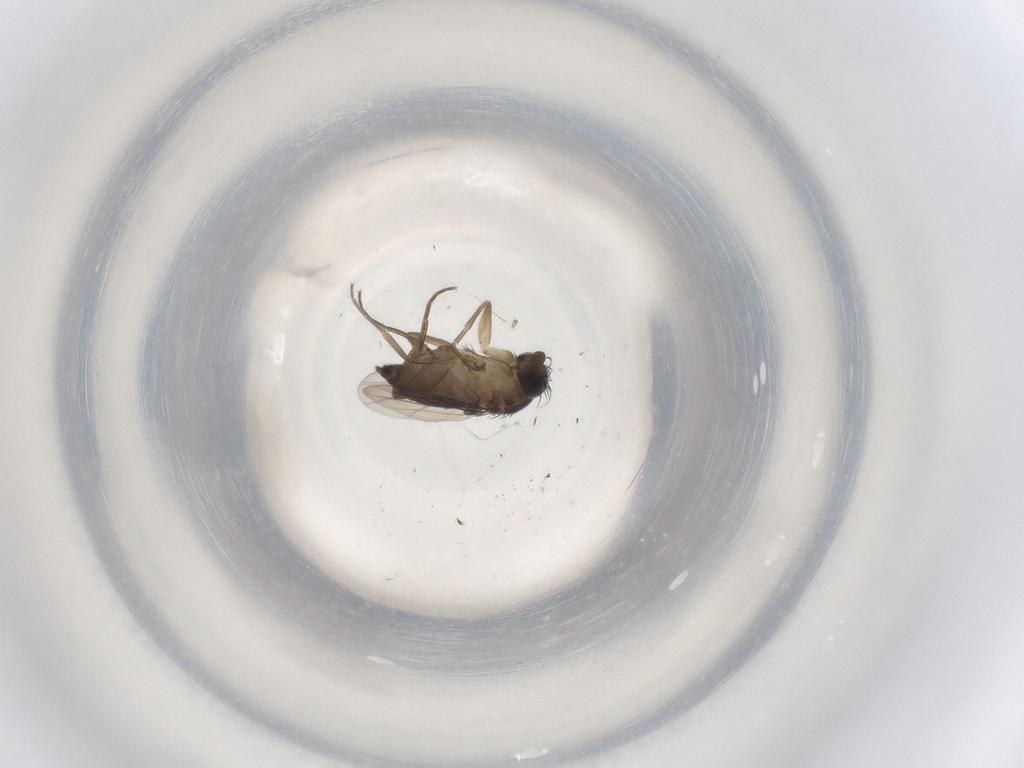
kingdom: Animalia
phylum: Arthropoda
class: Insecta
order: Diptera
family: Phoridae
